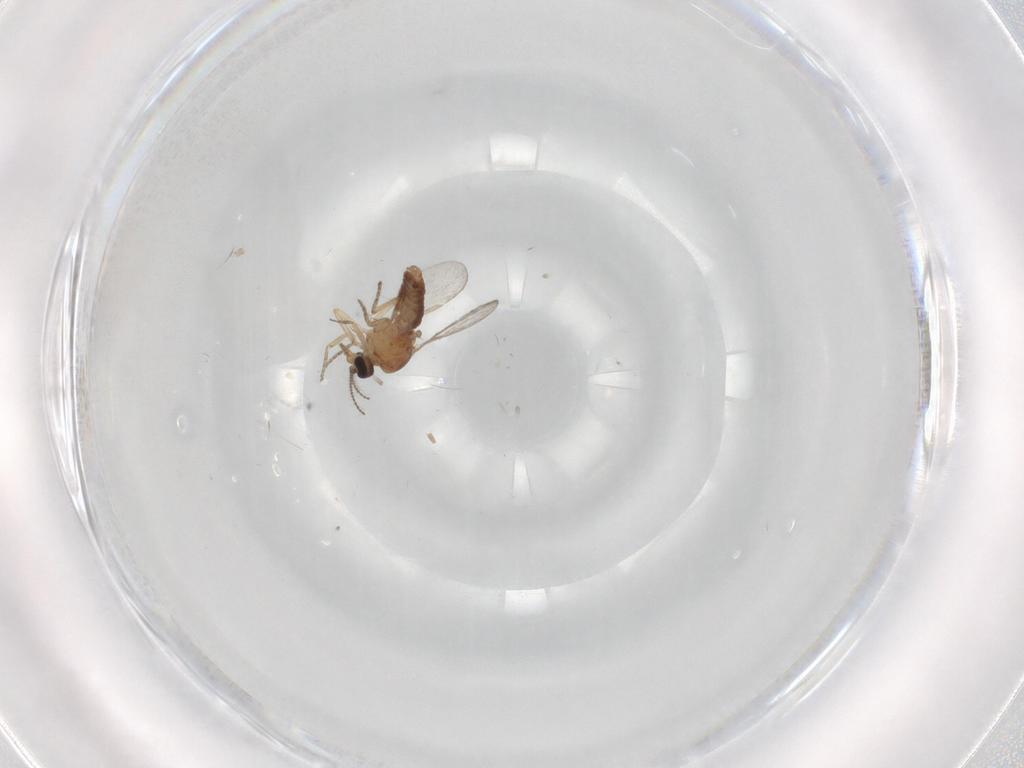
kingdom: Animalia
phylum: Arthropoda
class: Insecta
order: Diptera
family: Ceratopogonidae
